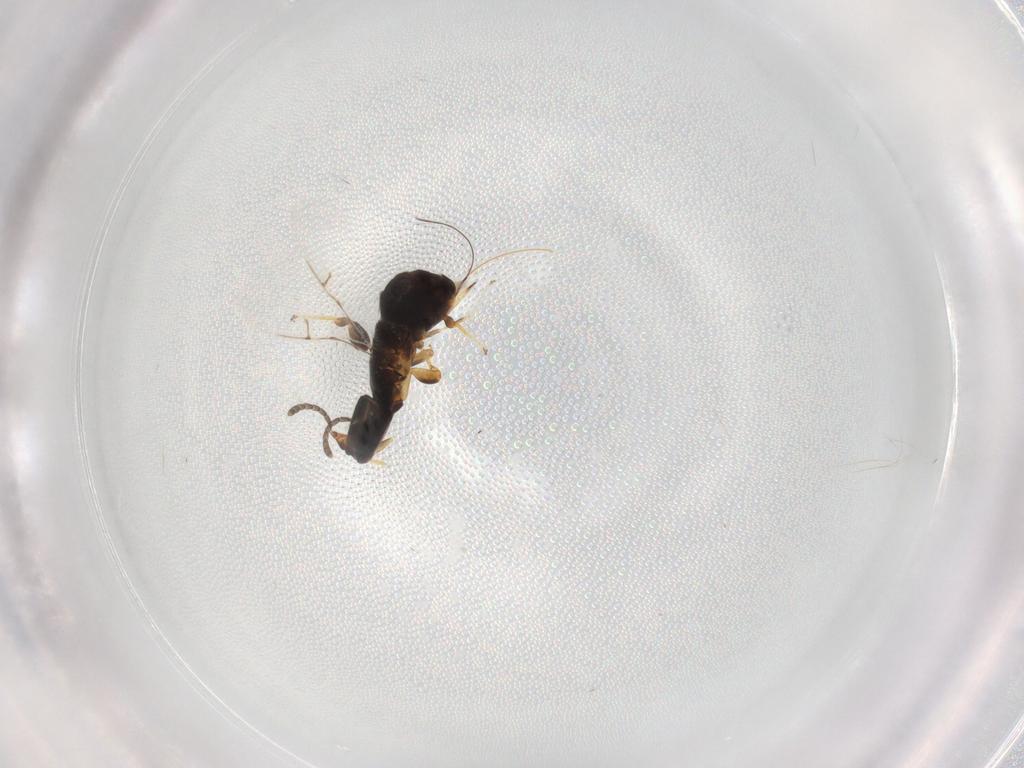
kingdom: Animalia
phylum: Arthropoda
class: Insecta
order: Hymenoptera
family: Agaonidae
